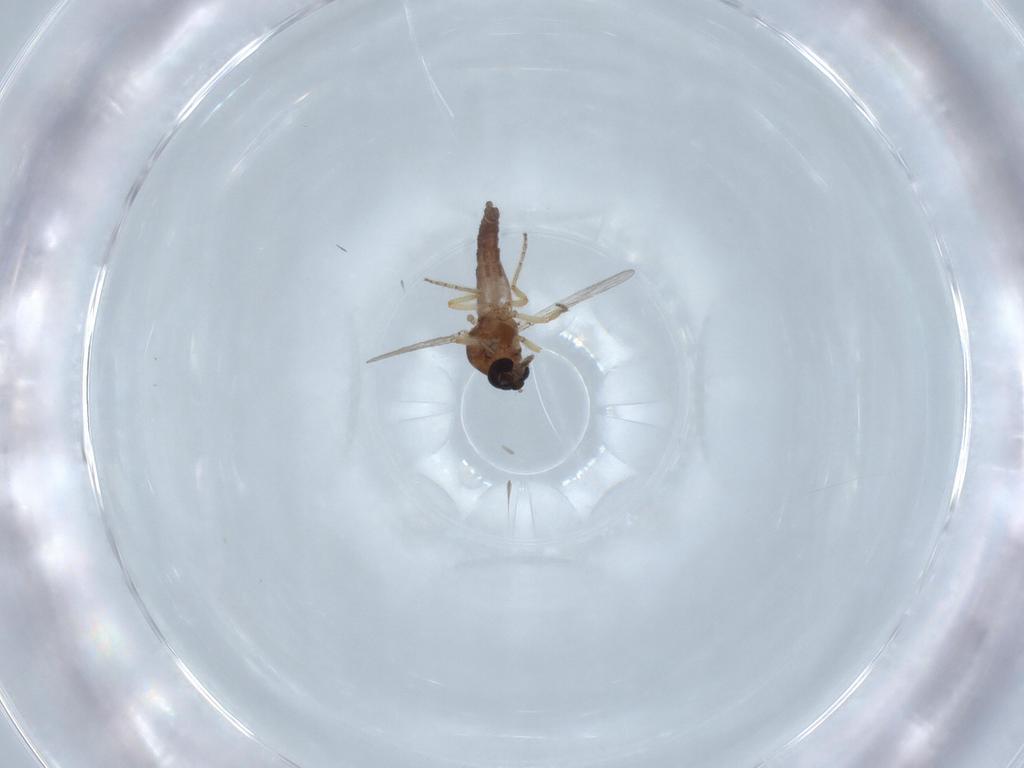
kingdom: Animalia
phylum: Arthropoda
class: Insecta
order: Diptera
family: Ceratopogonidae
